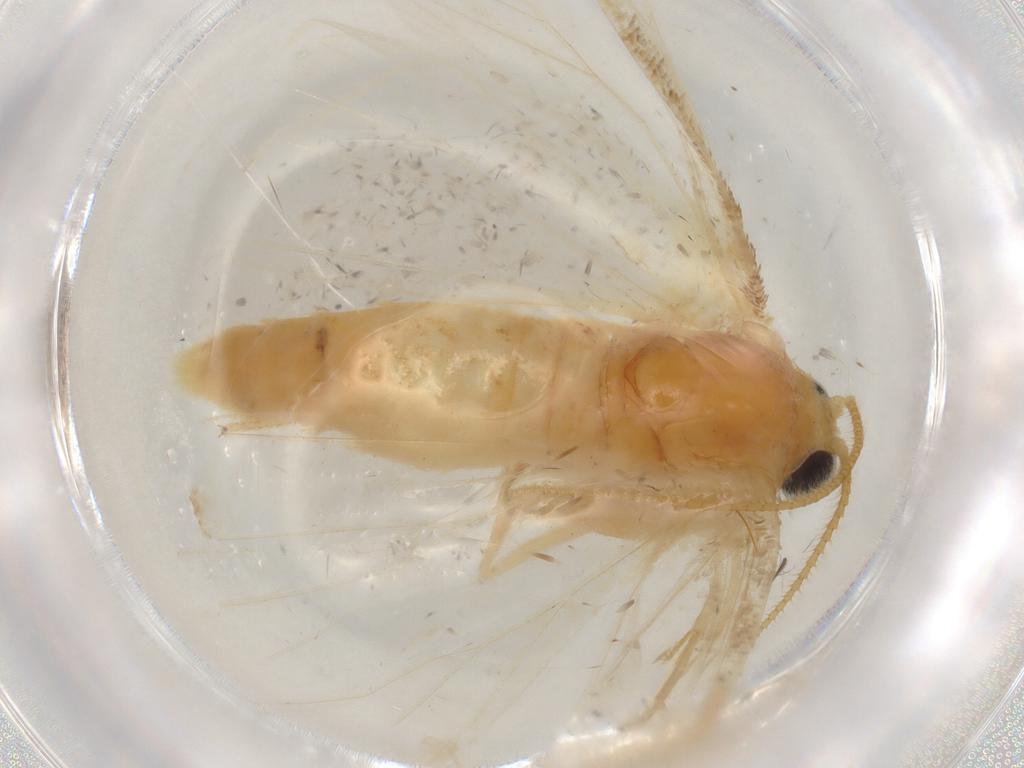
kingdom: Animalia
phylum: Arthropoda
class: Insecta
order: Lepidoptera
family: Geometridae
